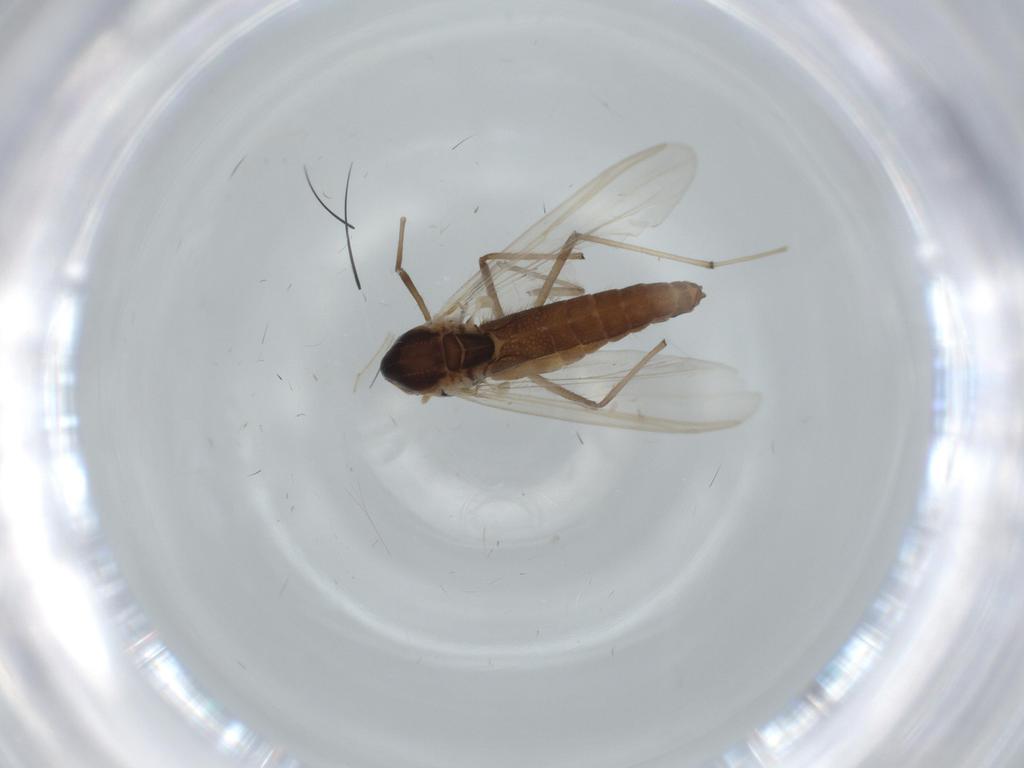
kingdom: Animalia
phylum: Arthropoda
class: Insecta
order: Diptera
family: Chironomidae
